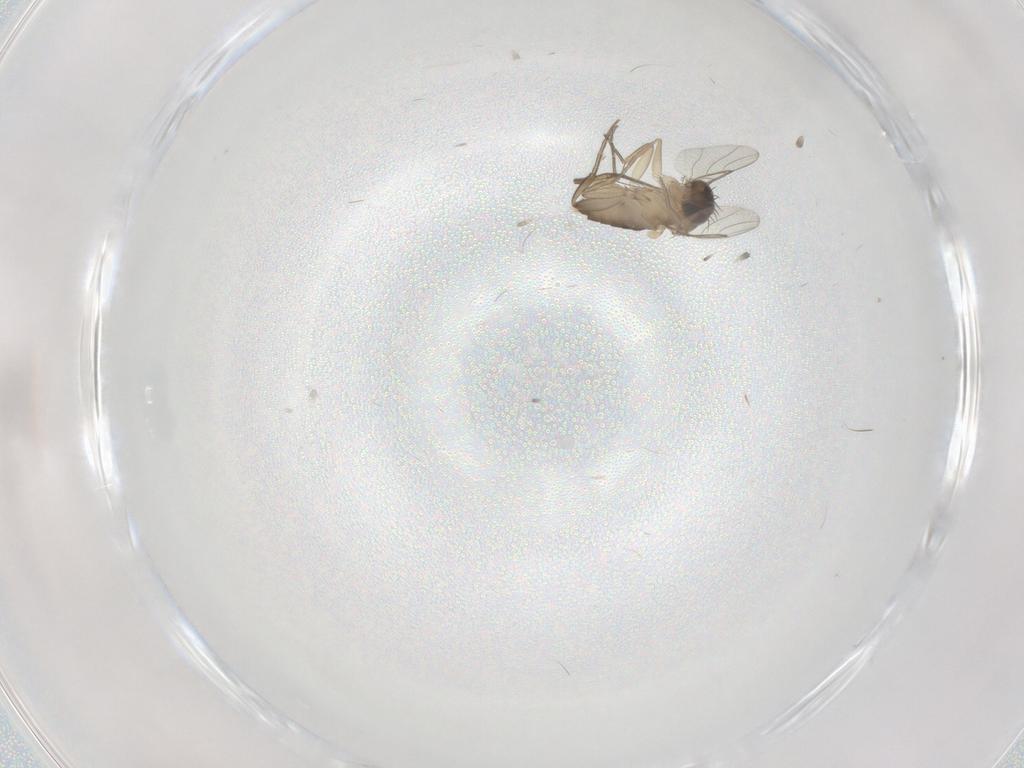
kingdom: Animalia
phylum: Arthropoda
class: Insecta
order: Diptera
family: Phoridae
